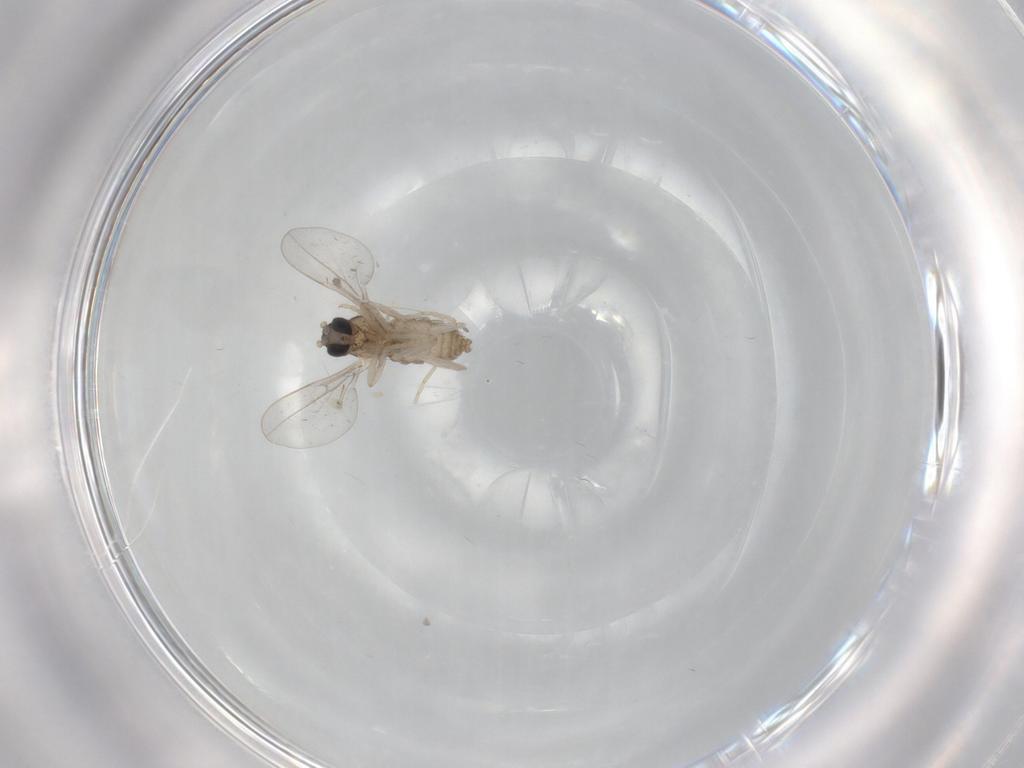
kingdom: Animalia
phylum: Arthropoda
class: Insecta
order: Diptera
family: Cecidomyiidae
